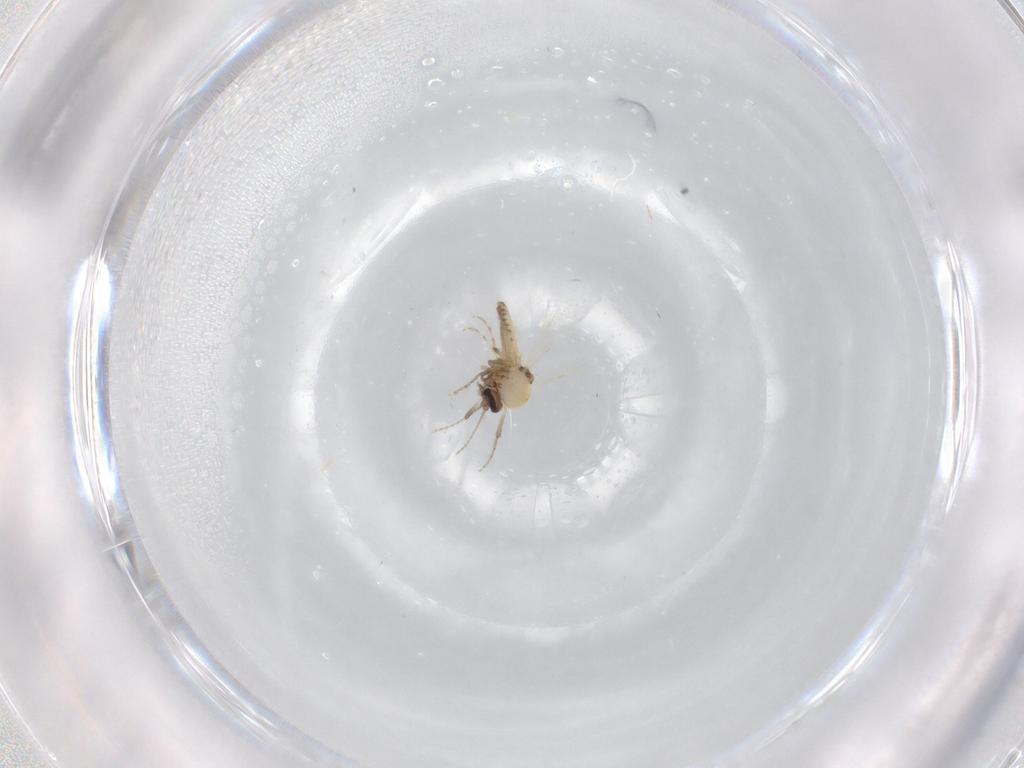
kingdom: Animalia
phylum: Arthropoda
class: Insecta
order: Diptera
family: Ceratopogonidae
